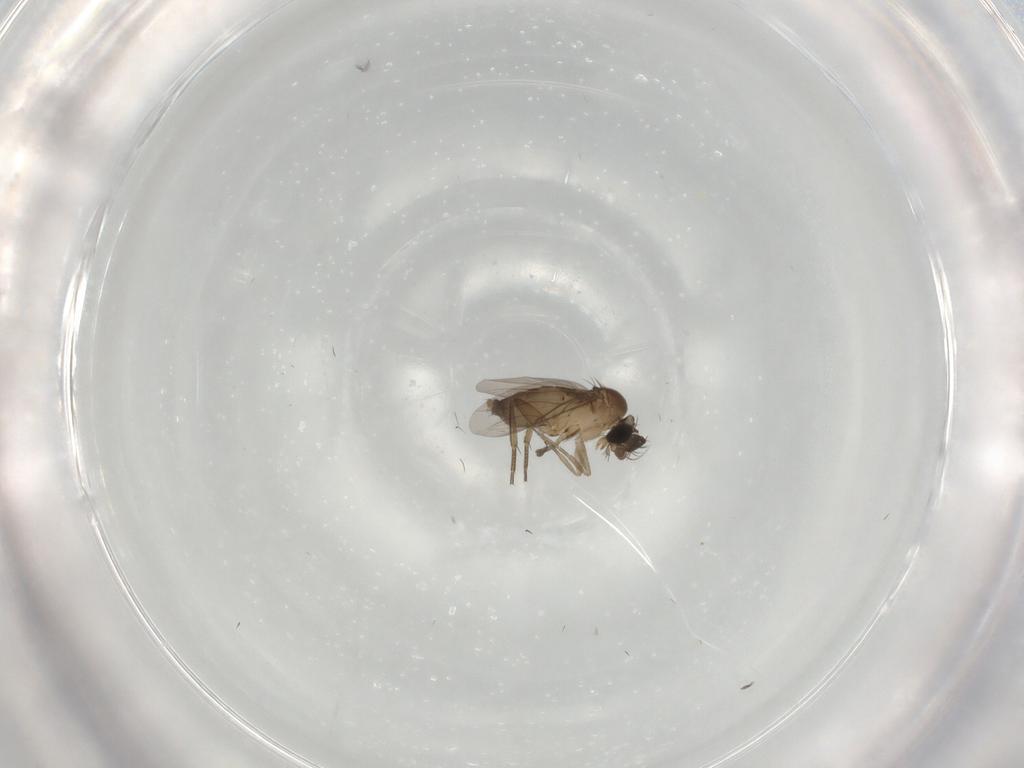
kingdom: Animalia
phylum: Arthropoda
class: Insecta
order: Diptera
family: Phoridae
